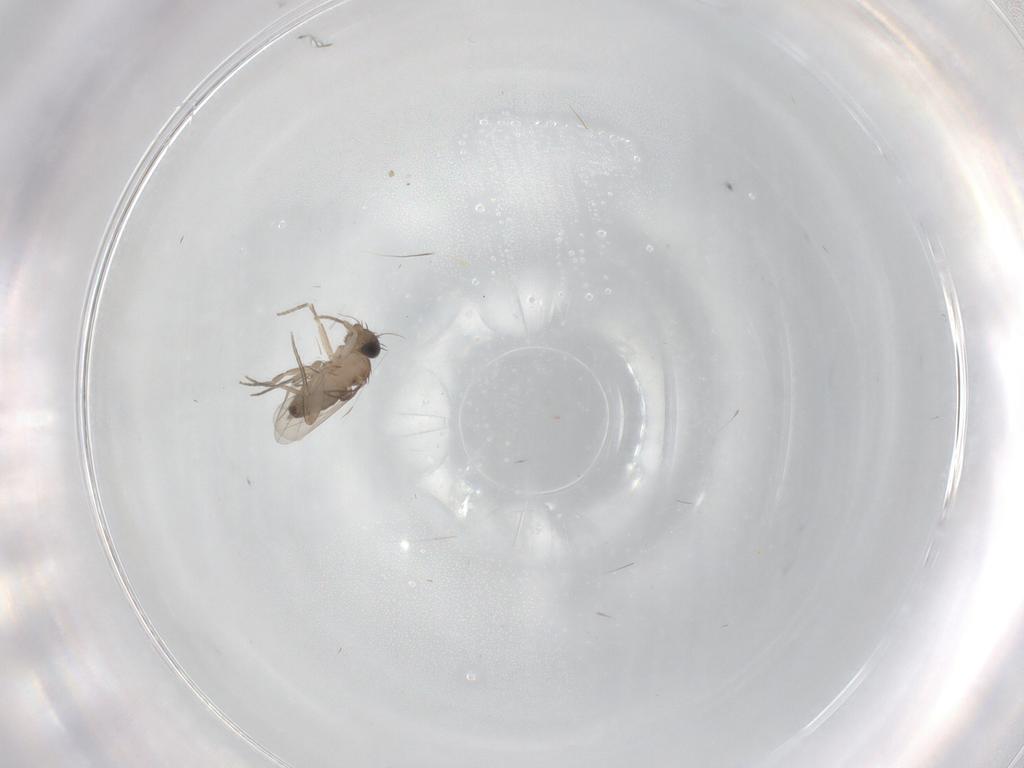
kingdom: Animalia
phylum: Arthropoda
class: Insecta
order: Diptera
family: Phoridae
